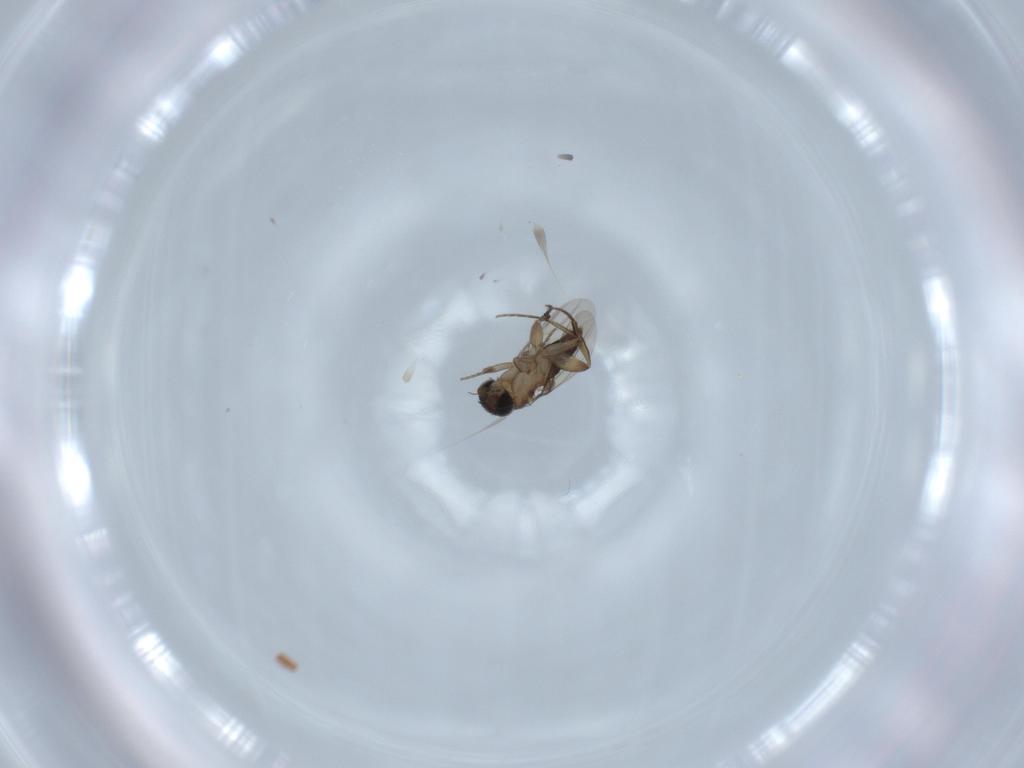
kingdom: Animalia
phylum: Arthropoda
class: Insecta
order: Diptera
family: Phoridae
